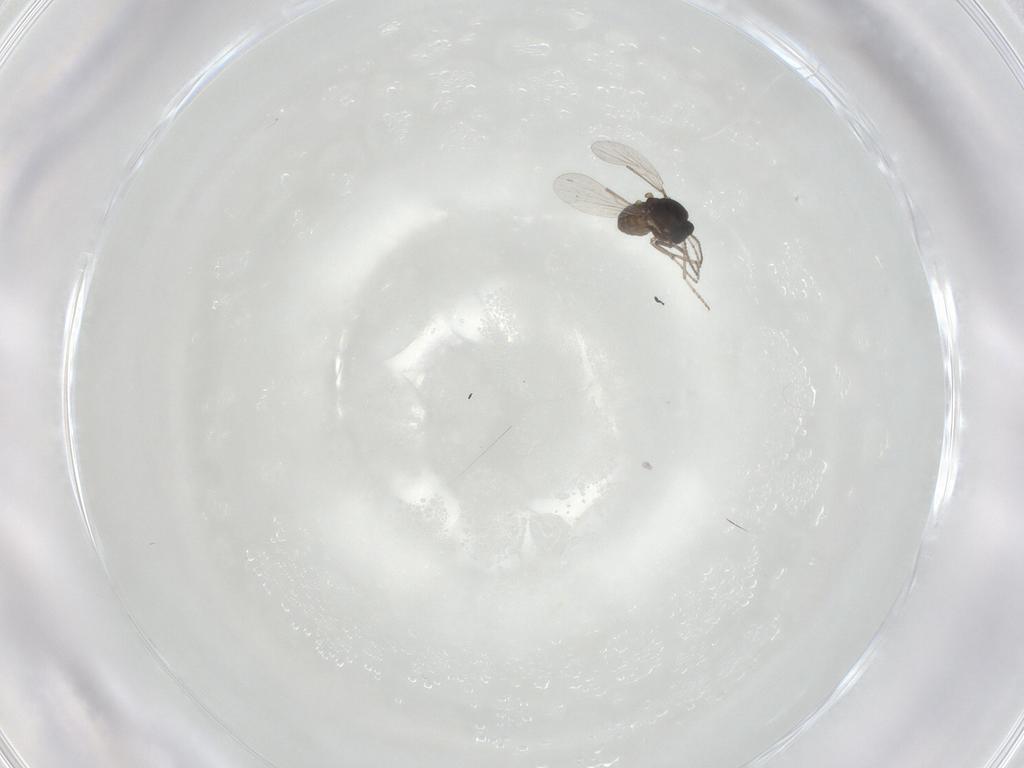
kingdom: Animalia
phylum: Arthropoda
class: Insecta
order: Diptera
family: Ceratopogonidae
